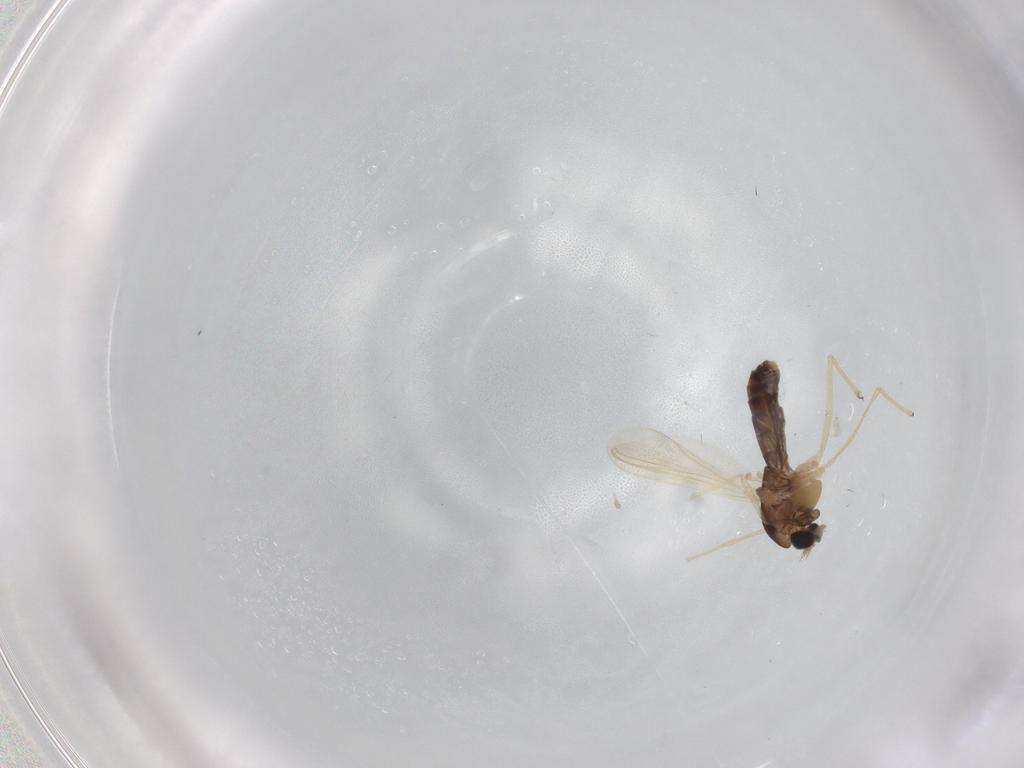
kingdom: Animalia
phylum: Arthropoda
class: Insecta
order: Diptera
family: Chironomidae
